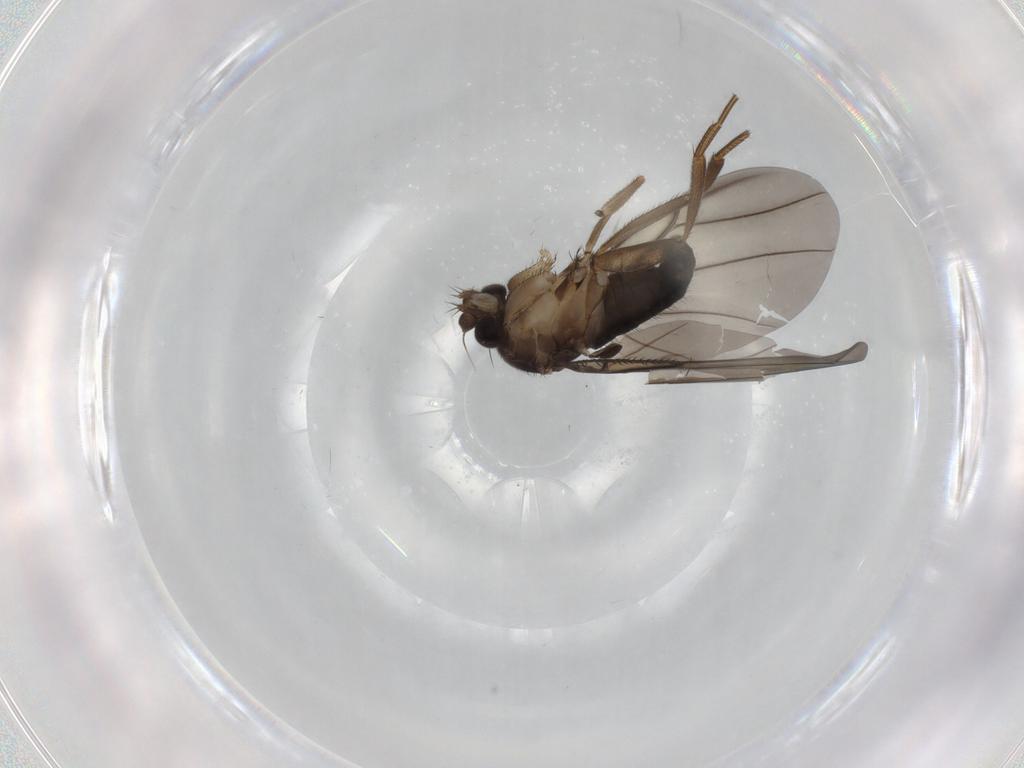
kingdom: Animalia
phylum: Arthropoda
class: Insecta
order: Diptera
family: Phoridae
